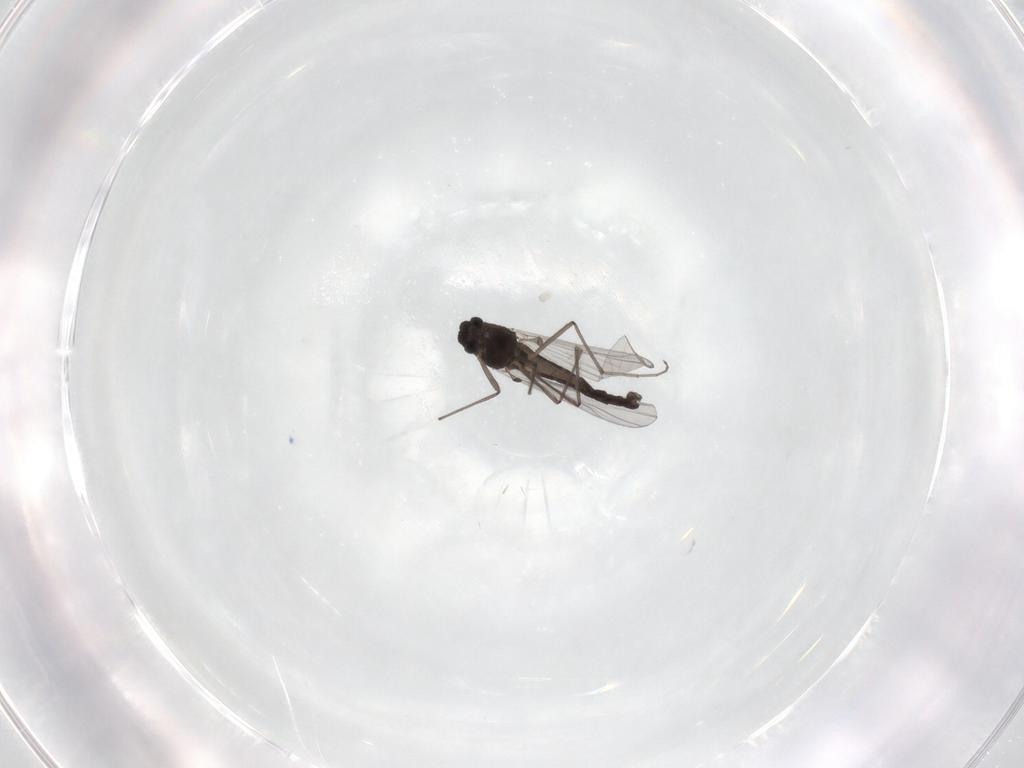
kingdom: Animalia
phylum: Arthropoda
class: Insecta
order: Diptera
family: Chironomidae
